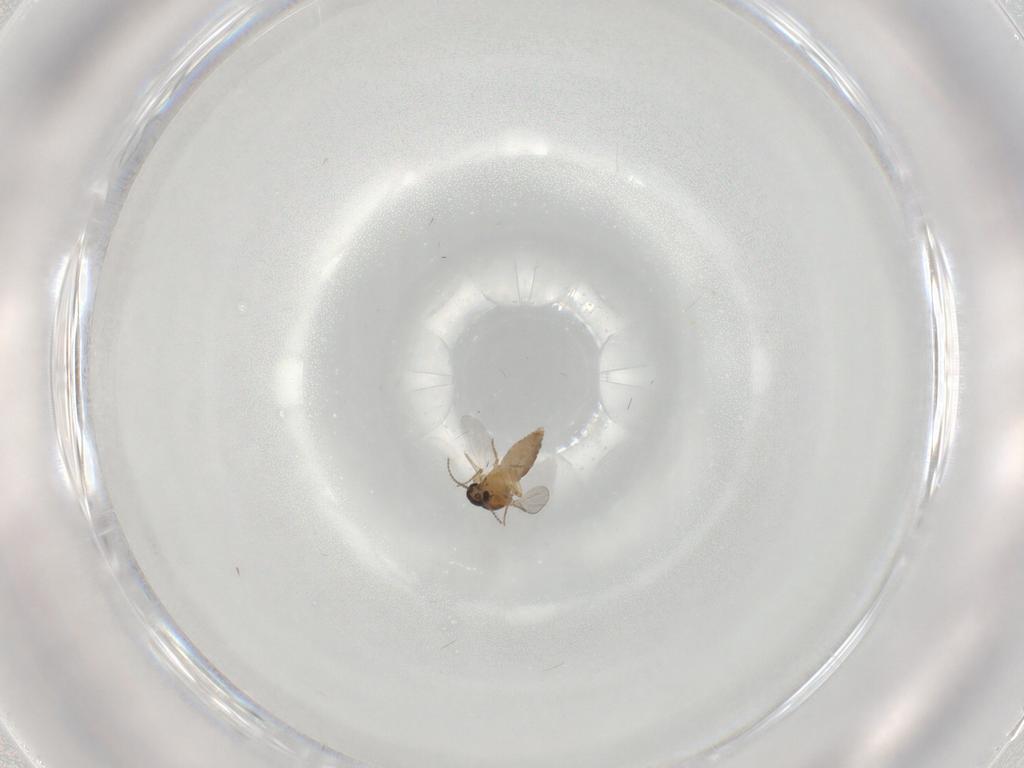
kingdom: Animalia
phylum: Arthropoda
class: Insecta
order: Diptera
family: Ceratopogonidae
